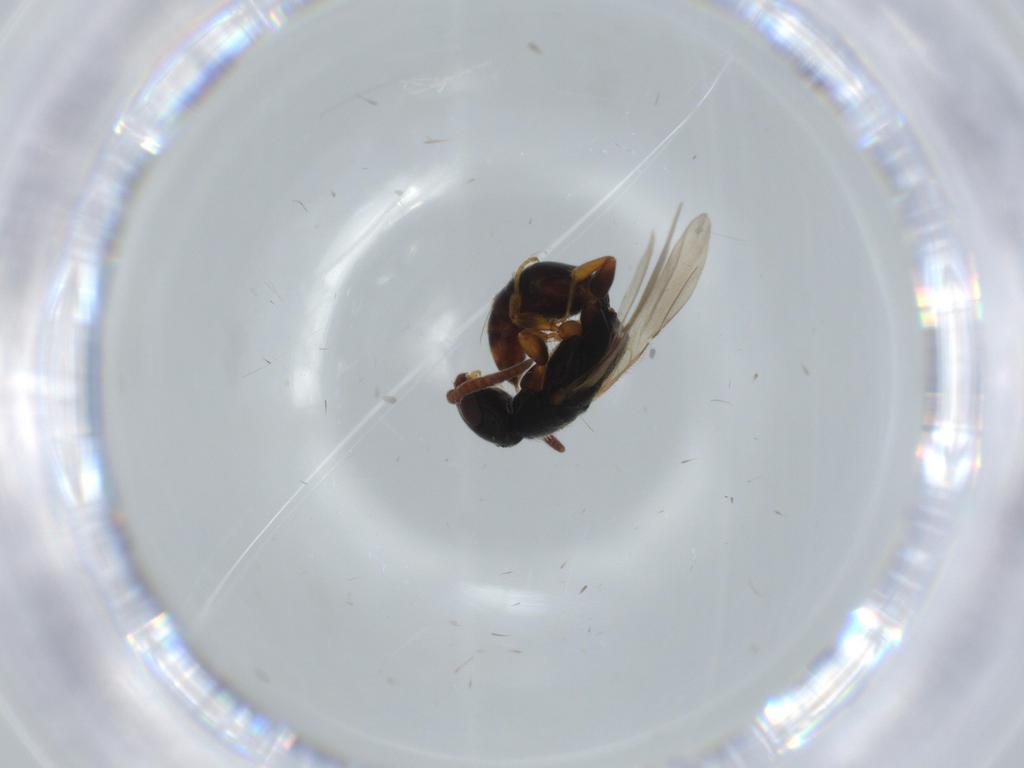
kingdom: Animalia
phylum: Arthropoda
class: Insecta
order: Hymenoptera
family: Bethylidae
